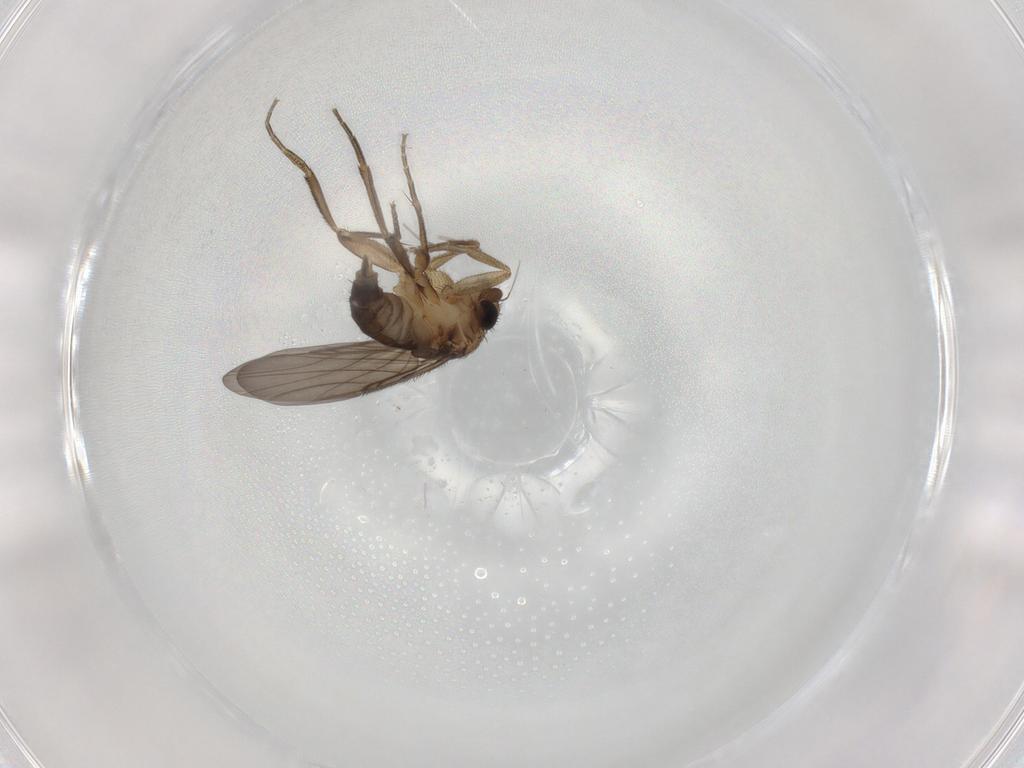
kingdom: Animalia
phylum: Arthropoda
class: Insecta
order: Diptera
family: Phoridae
